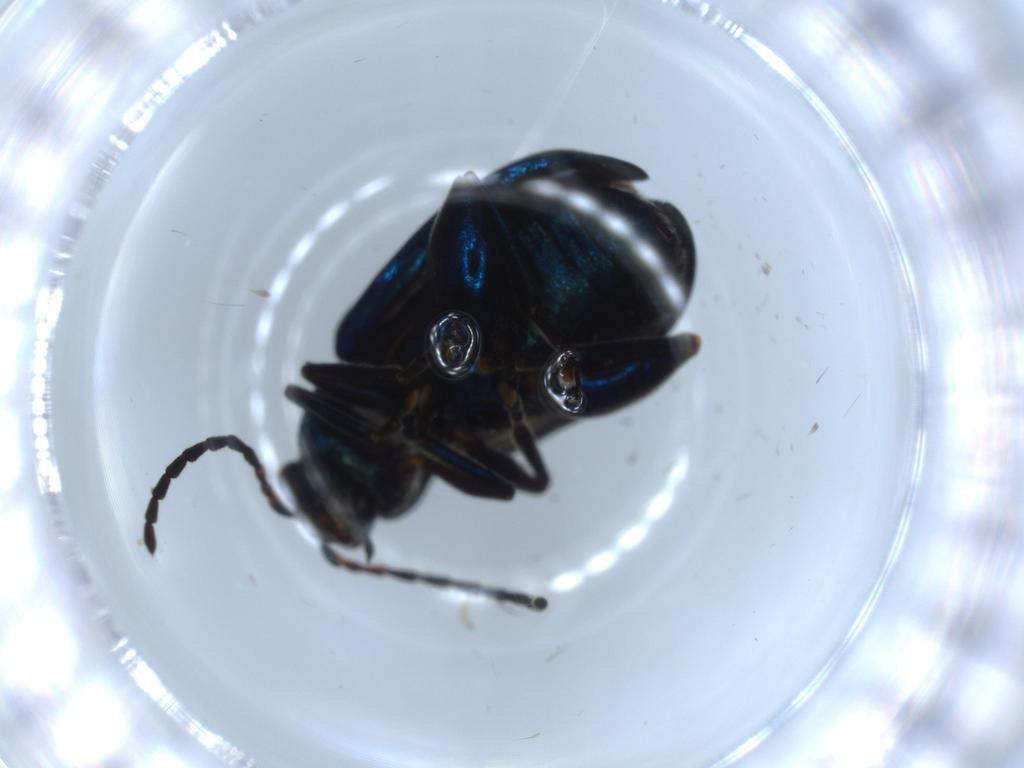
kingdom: Animalia
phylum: Arthropoda
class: Insecta
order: Coleoptera
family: Chrysomelidae
